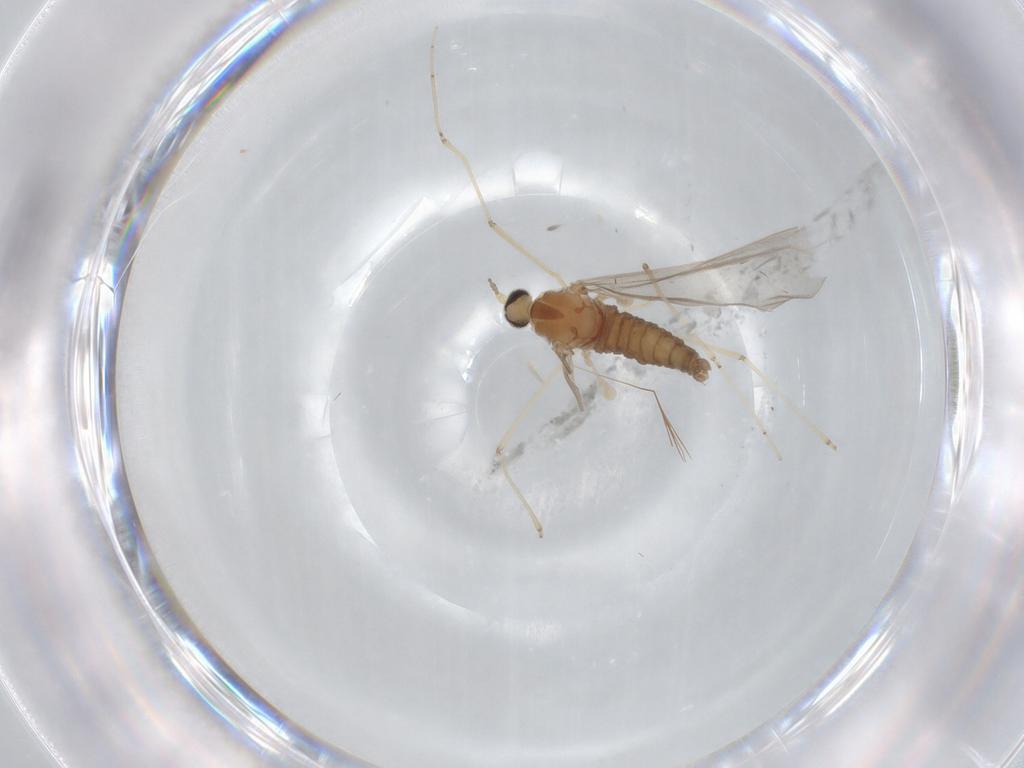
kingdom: Animalia
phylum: Arthropoda
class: Insecta
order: Diptera
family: Cecidomyiidae
